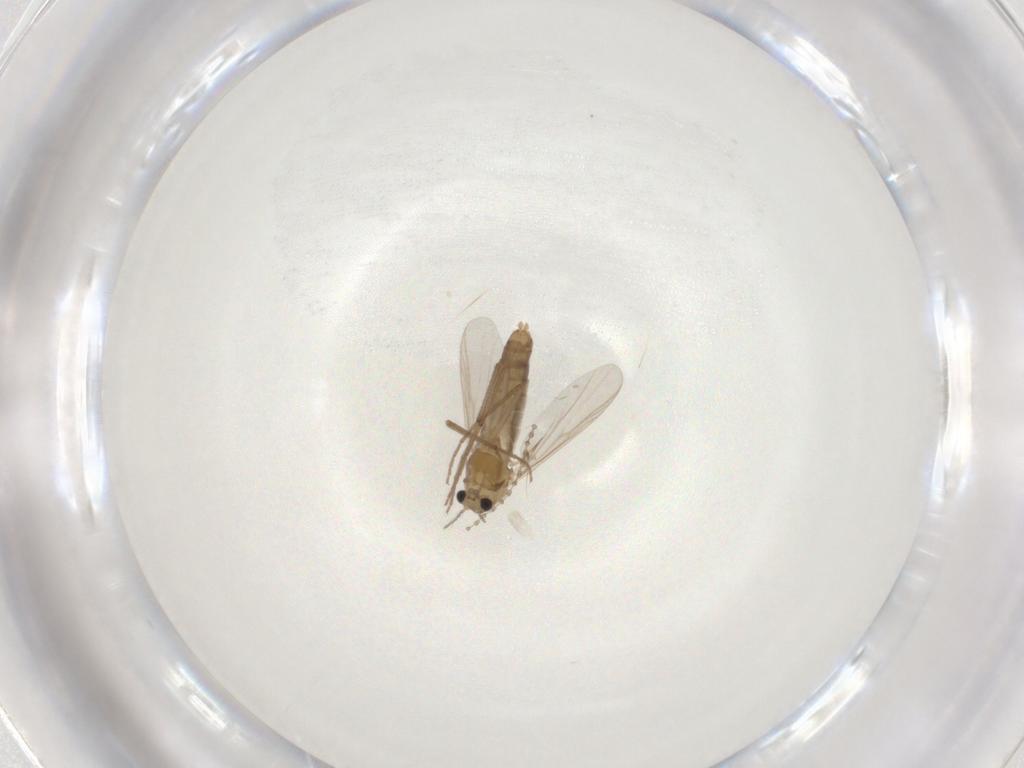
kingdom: Animalia
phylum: Arthropoda
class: Insecta
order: Diptera
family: Chironomidae
